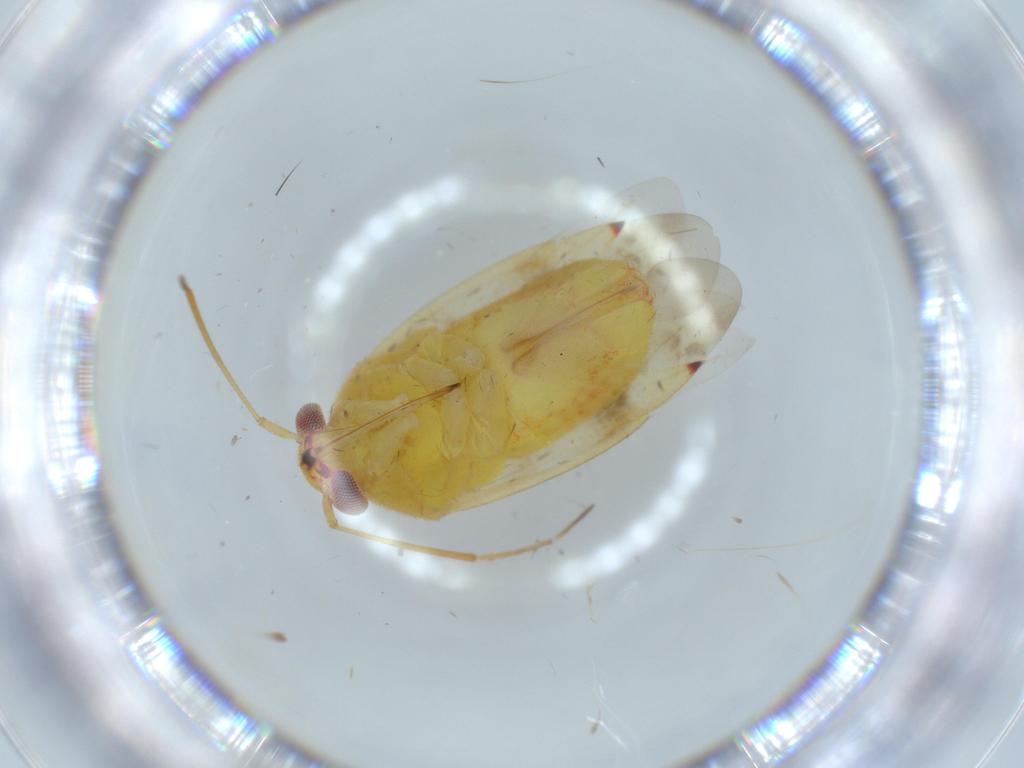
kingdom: Animalia
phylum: Arthropoda
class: Insecta
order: Hemiptera
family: Miridae
